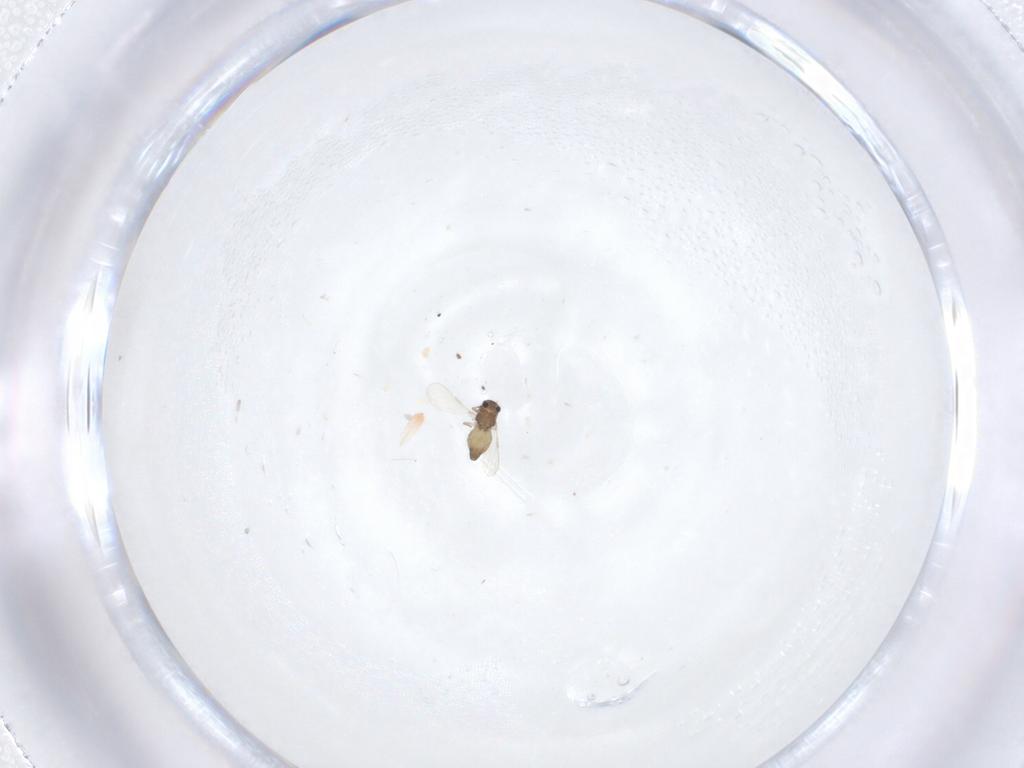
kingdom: Animalia
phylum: Arthropoda
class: Insecta
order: Diptera
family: Chironomidae
